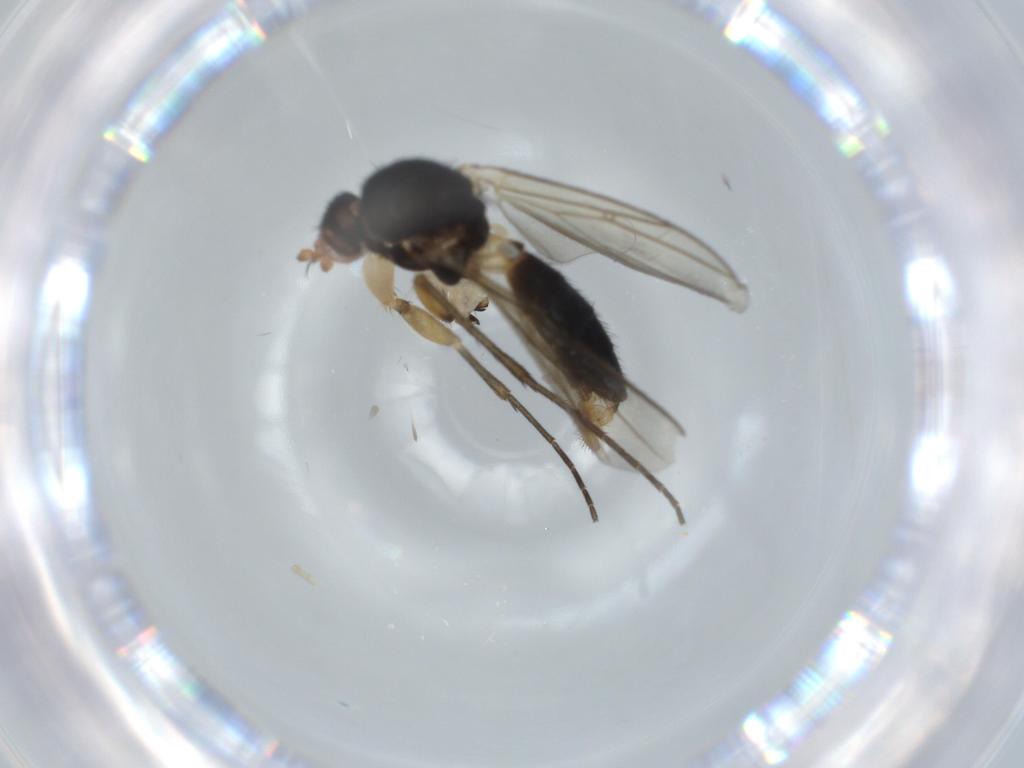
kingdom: Animalia
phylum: Arthropoda
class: Insecta
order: Diptera
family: Mycetophilidae
